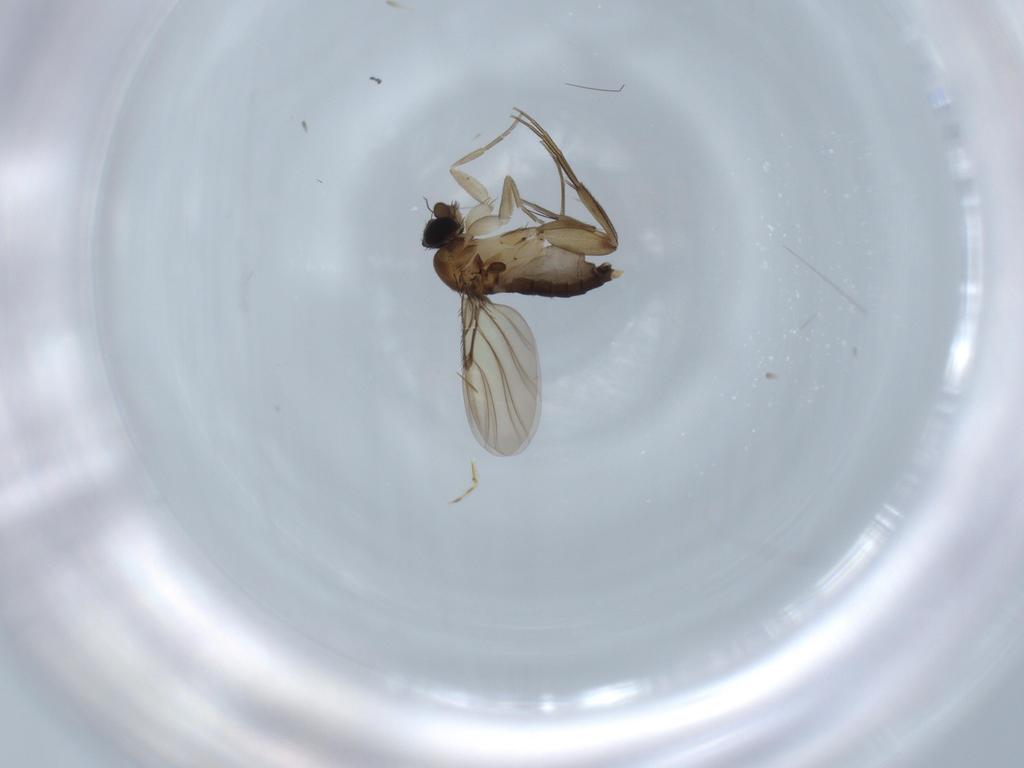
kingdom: Animalia
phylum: Arthropoda
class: Insecta
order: Diptera
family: Phoridae
